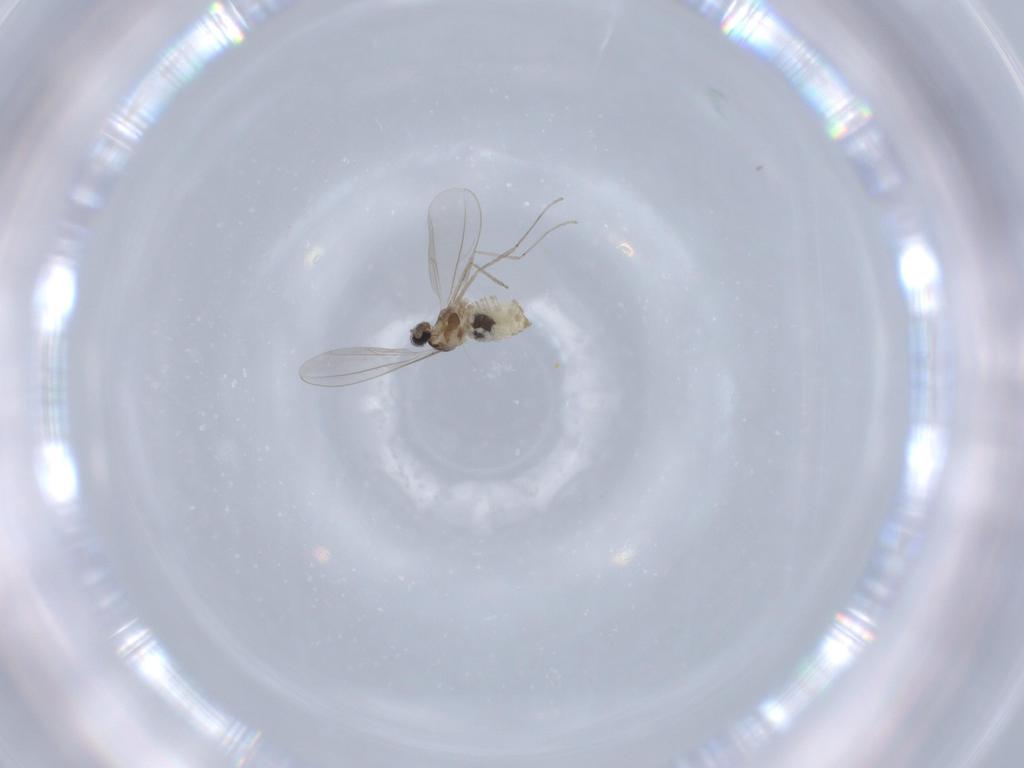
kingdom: Animalia
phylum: Arthropoda
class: Insecta
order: Diptera
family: Cecidomyiidae
